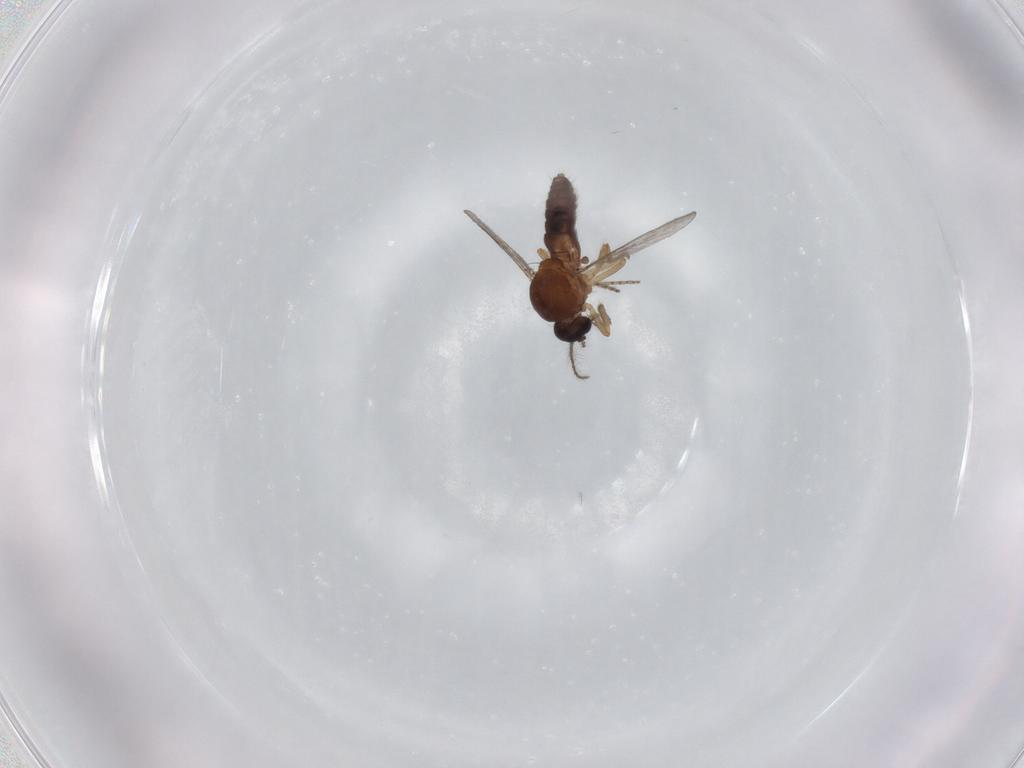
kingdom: Animalia
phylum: Arthropoda
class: Insecta
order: Diptera
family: Ceratopogonidae
